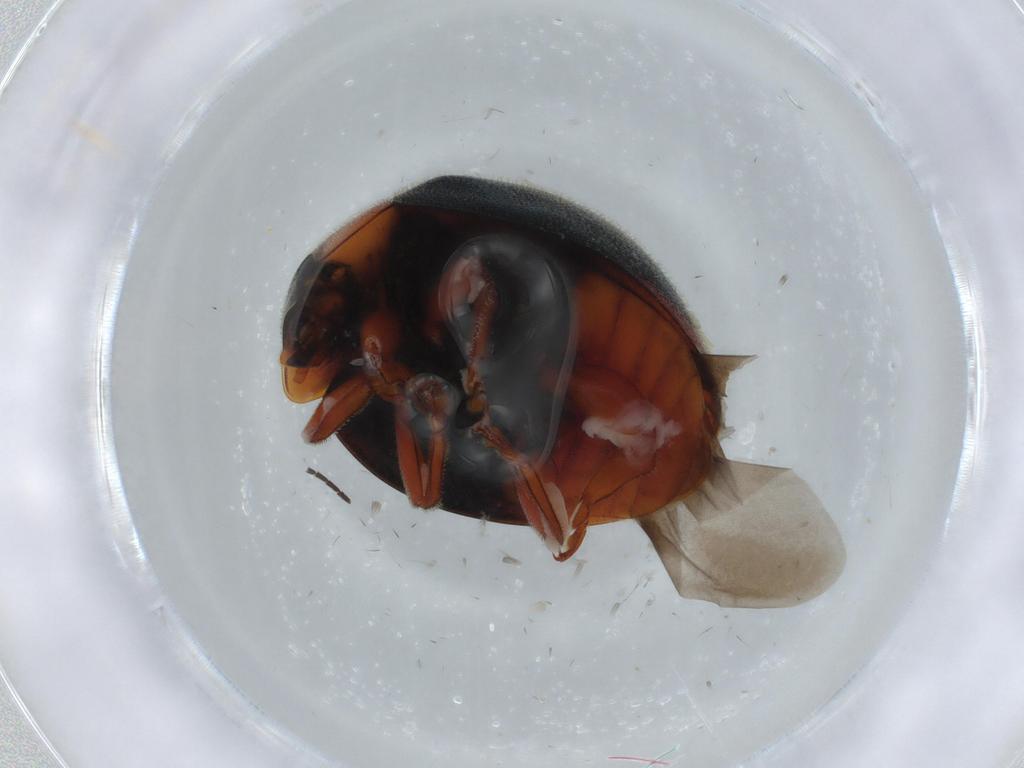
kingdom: Animalia
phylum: Arthropoda
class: Insecta
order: Coleoptera
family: Coccinellidae
